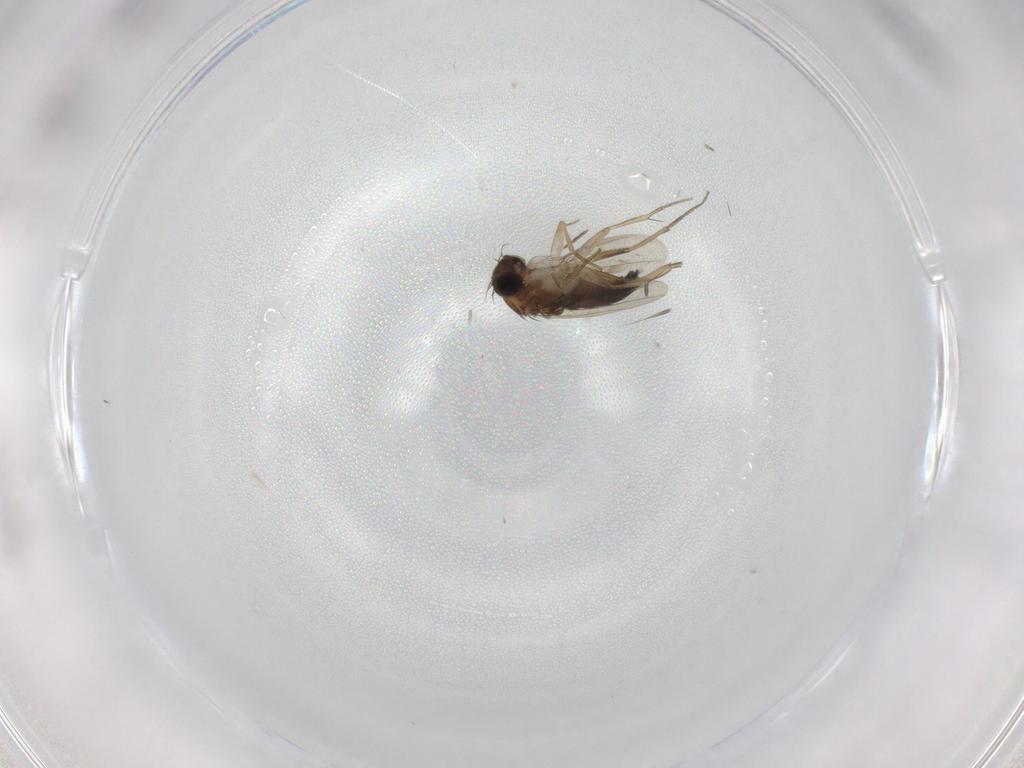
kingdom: Animalia
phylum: Arthropoda
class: Insecta
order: Diptera
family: Phoridae
